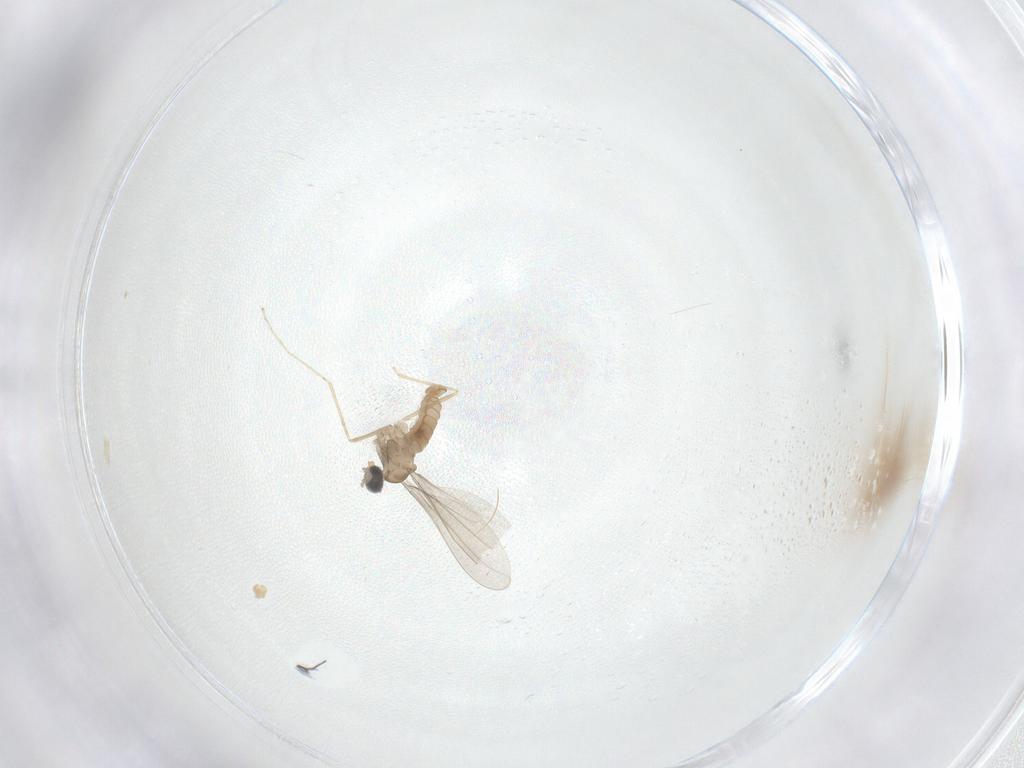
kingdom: Animalia
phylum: Arthropoda
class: Insecta
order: Diptera
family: Cecidomyiidae
